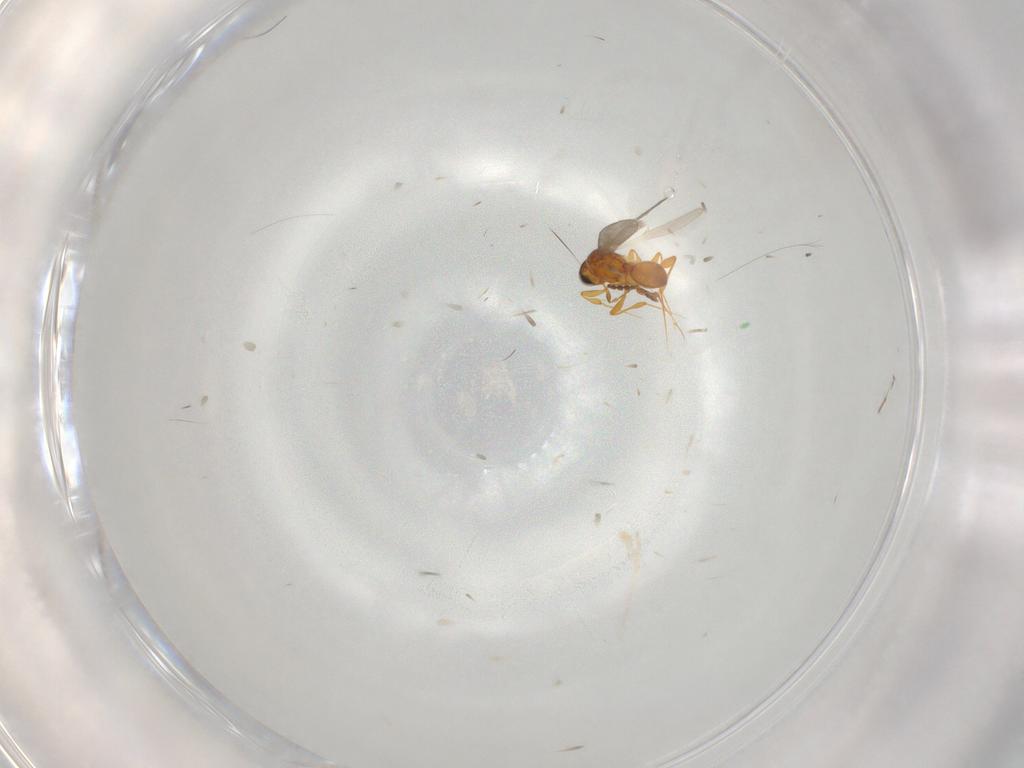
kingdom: Animalia
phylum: Arthropoda
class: Insecta
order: Hymenoptera
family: Platygastridae
